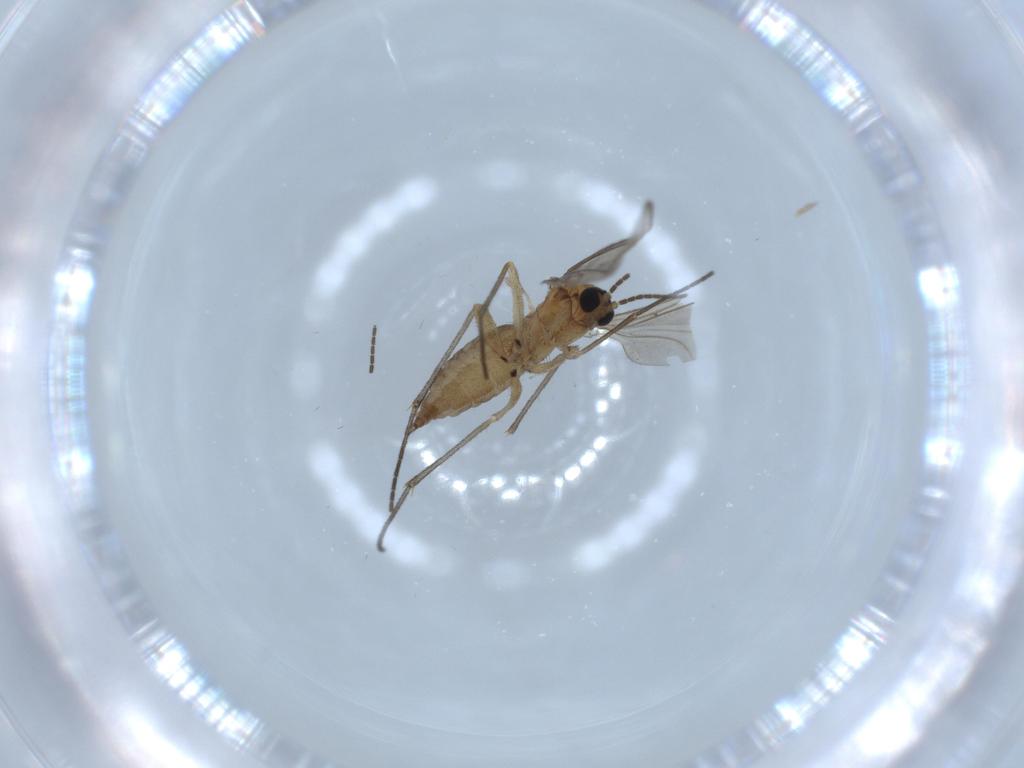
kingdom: Animalia
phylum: Arthropoda
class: Insecta
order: Diptera
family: Sciaridae
